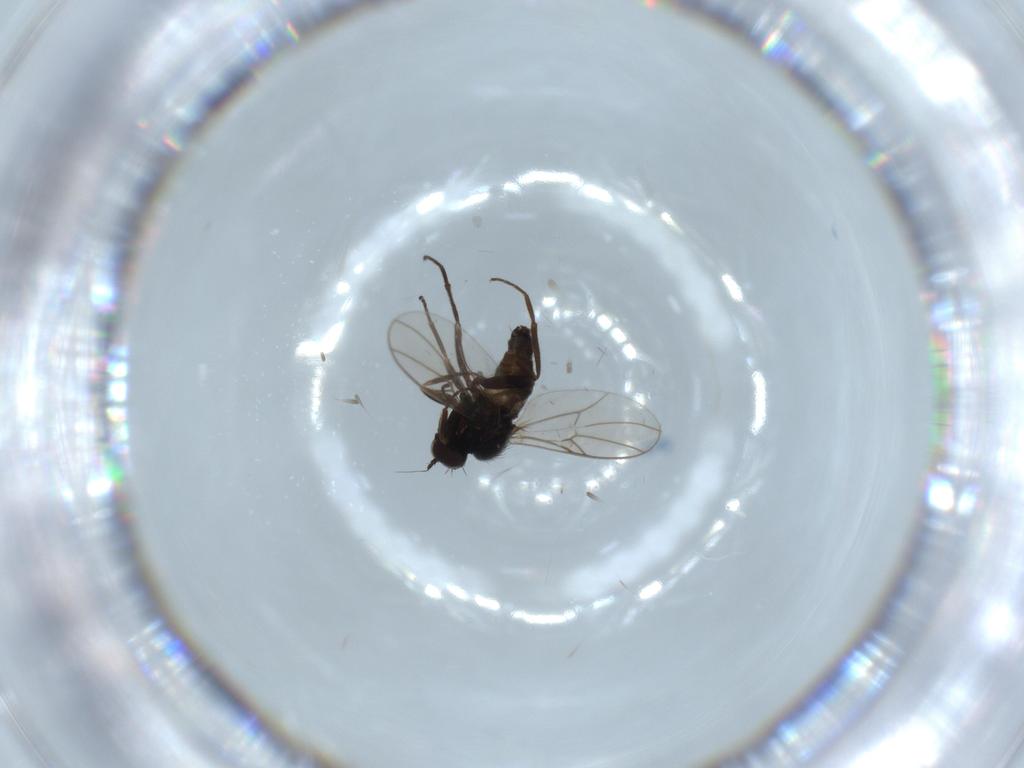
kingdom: Animalia
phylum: Arthropoda
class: Insecta
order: Diptera
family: Hybotidae
